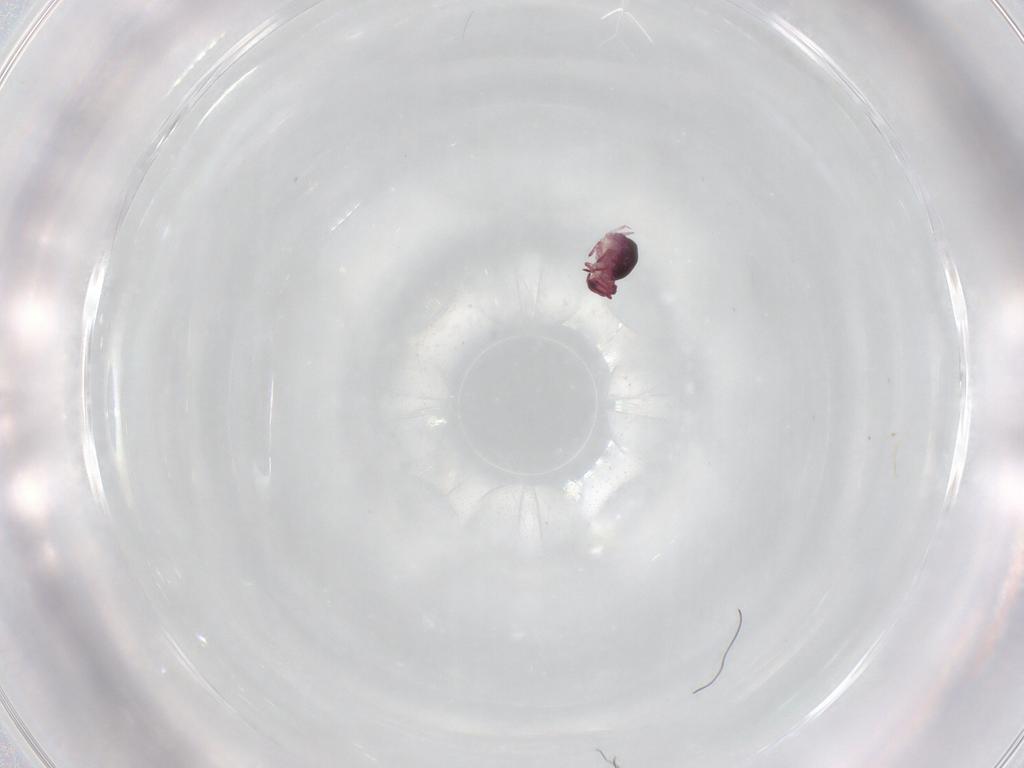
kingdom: Animalia
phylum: Arthropoda
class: Collembola
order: Symphypleona
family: Sminthurididae
